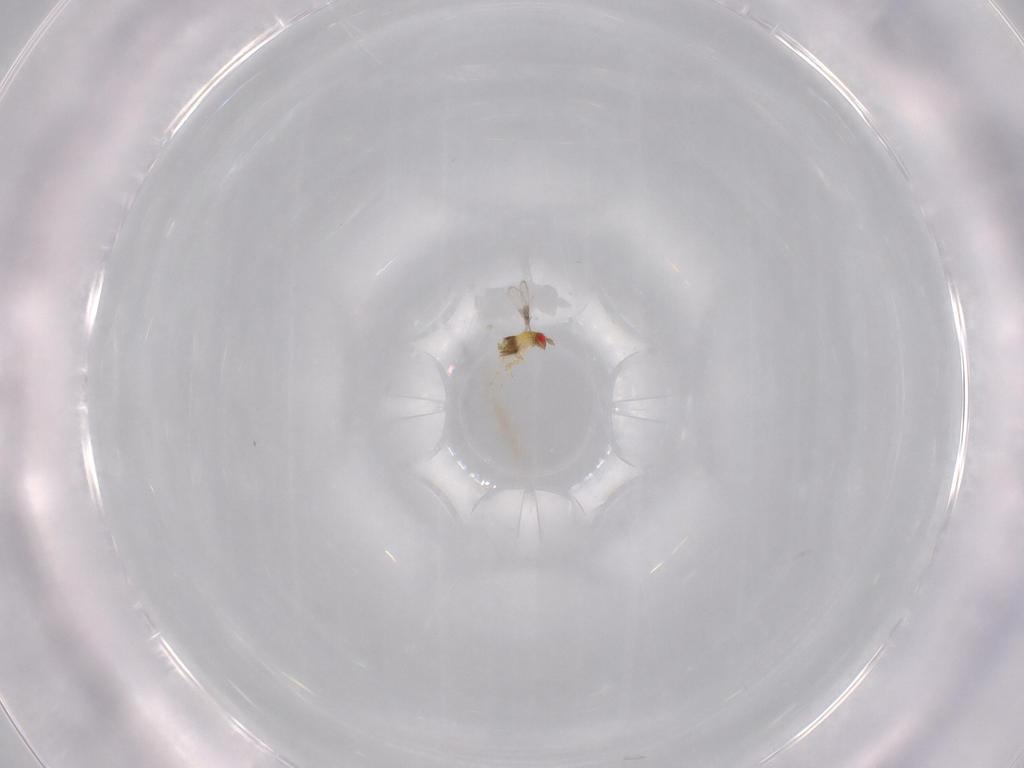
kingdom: Animalia
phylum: Arthropoda
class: Insecta
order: Hymenoptera
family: Trichogrammatidae
